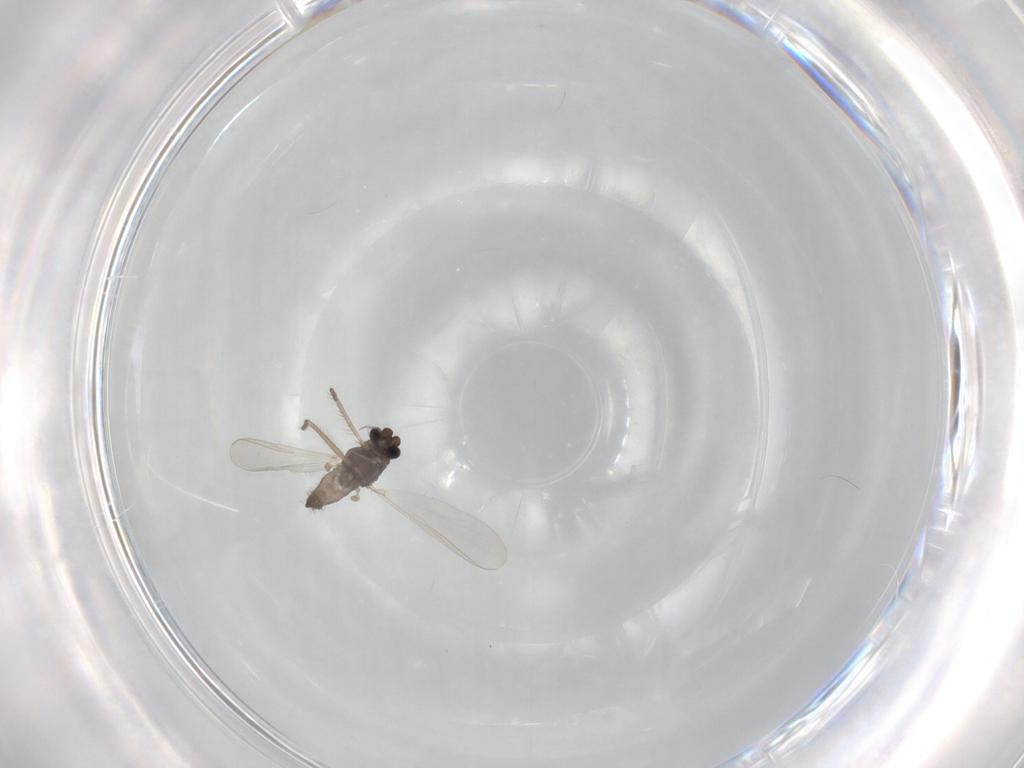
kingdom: Animalia
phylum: Arthropoda
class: Insecta
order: Diptera
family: Chironomidae
